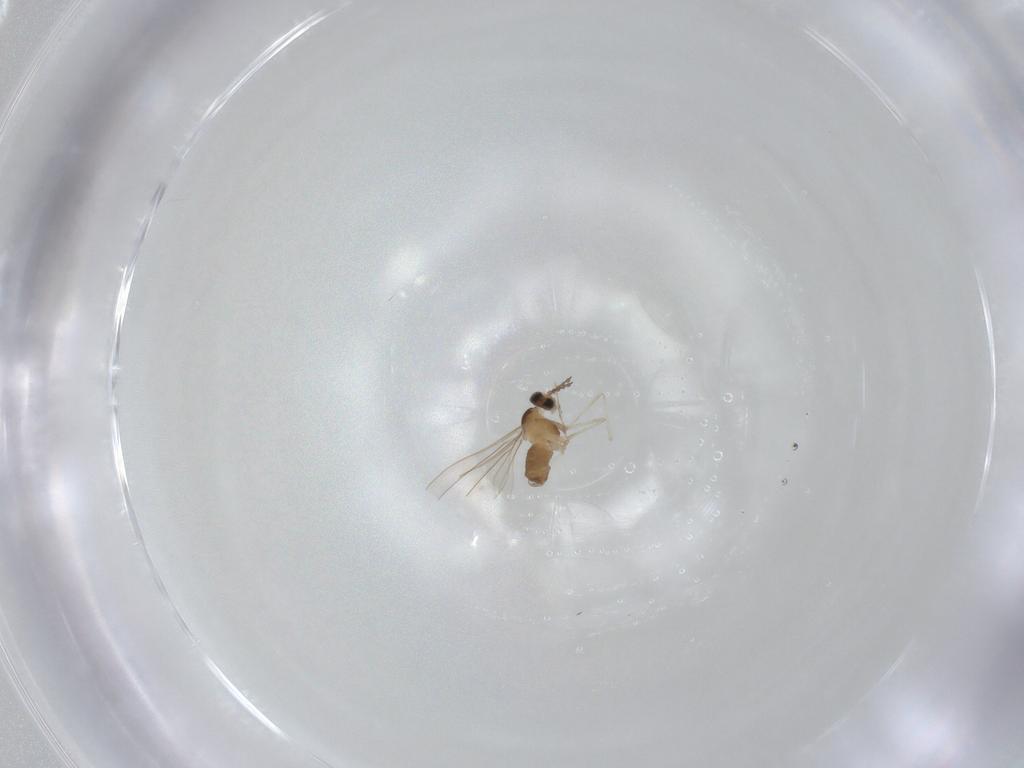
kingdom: Animalia
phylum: Arthropoda
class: Insecta
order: Diptera
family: Cecidomyiidae
